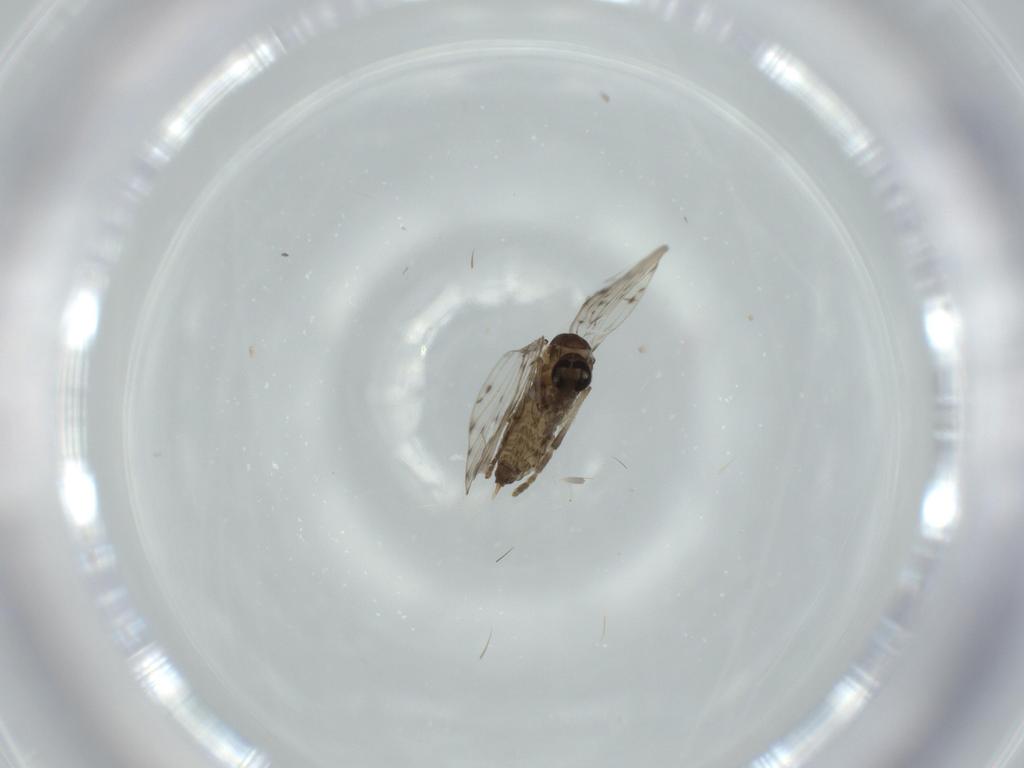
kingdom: Animalia
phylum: Arthropoda
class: Insecta
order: Diptera
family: Psychodidae
